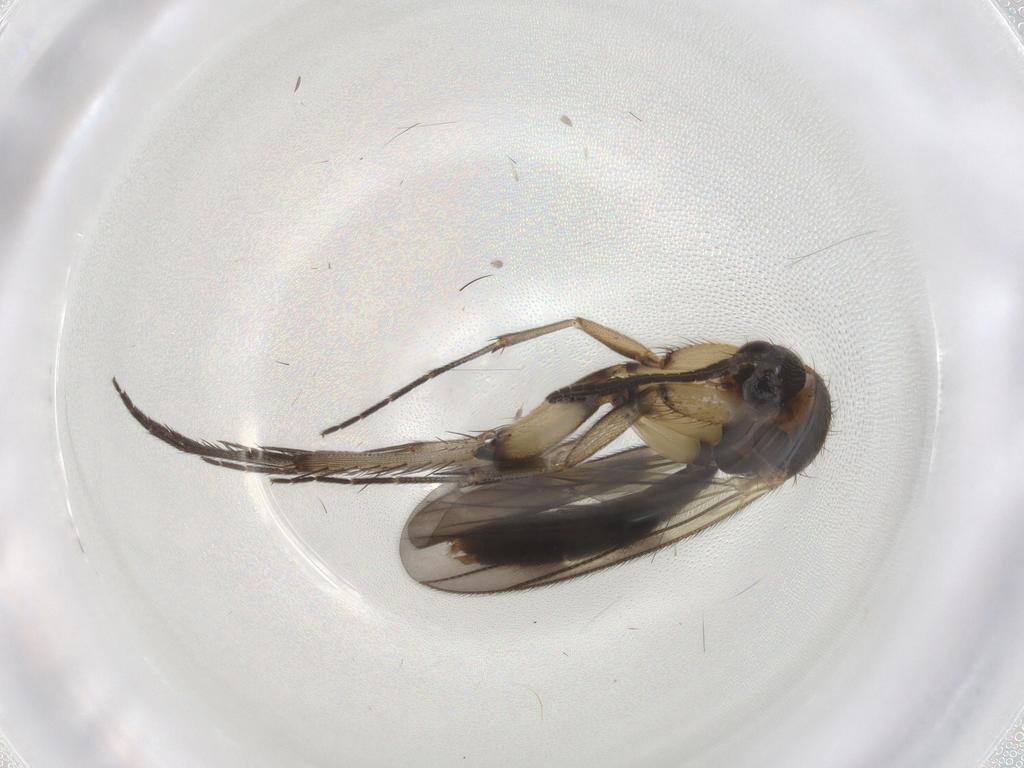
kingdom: Animalia
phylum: Arthropoda
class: Insecta
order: Diptera
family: Mycetophilidae
